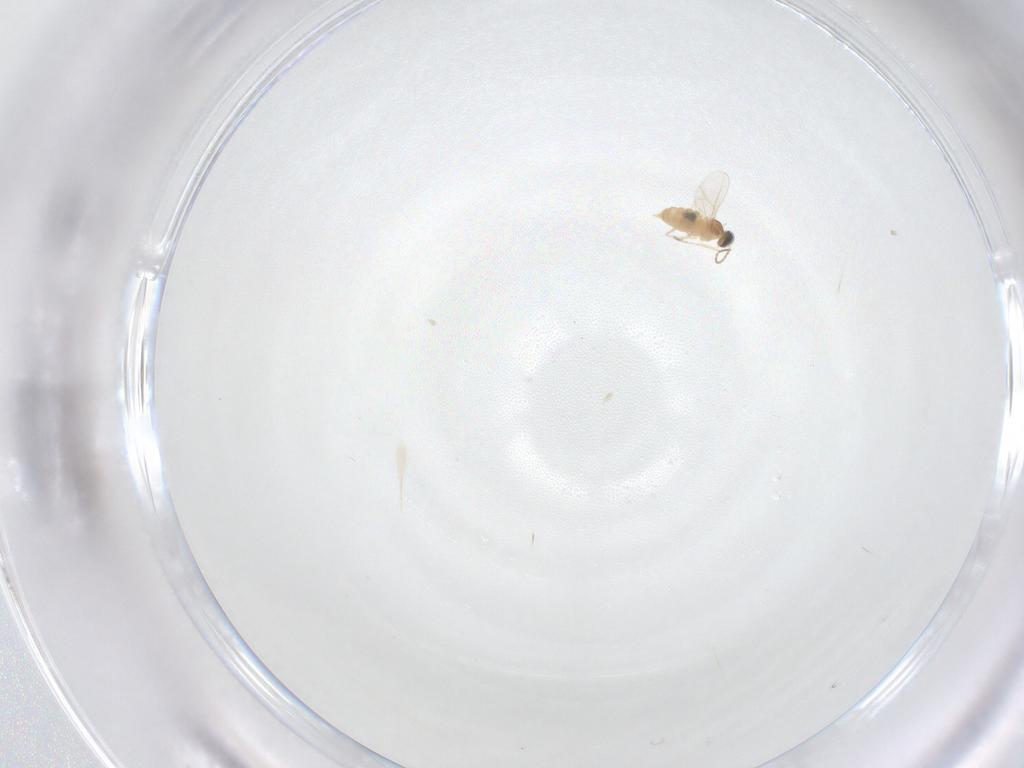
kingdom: Animalia
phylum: Arthropoda
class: Insecta
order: Diptera
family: Cecidomyiidae
